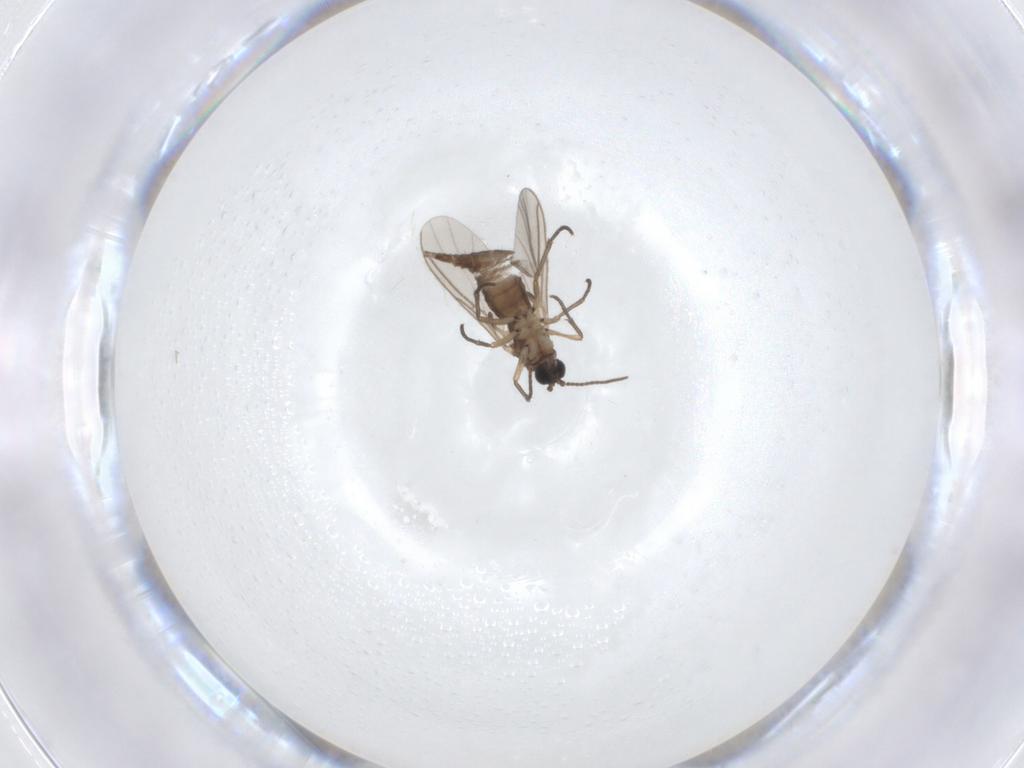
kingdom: Animalia
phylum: Arthropoda
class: Insecta
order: Diptera
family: Sciaridae
